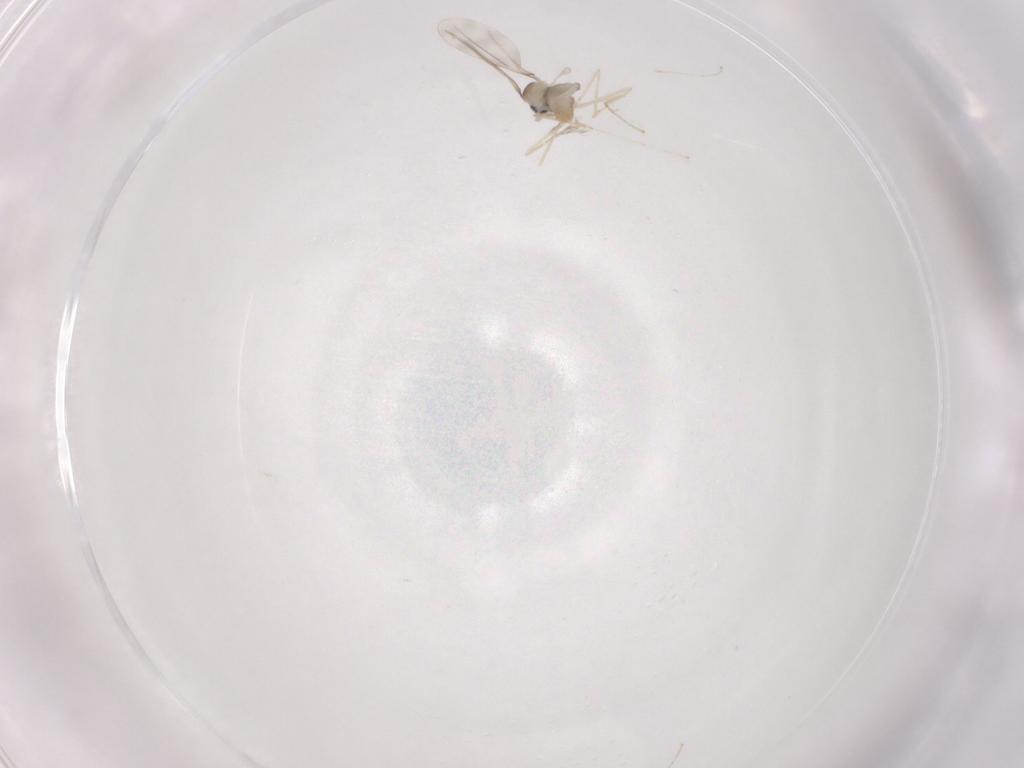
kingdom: Animalia
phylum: Arthropoda
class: Insecta
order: Diptera
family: Cecidomyiidae
